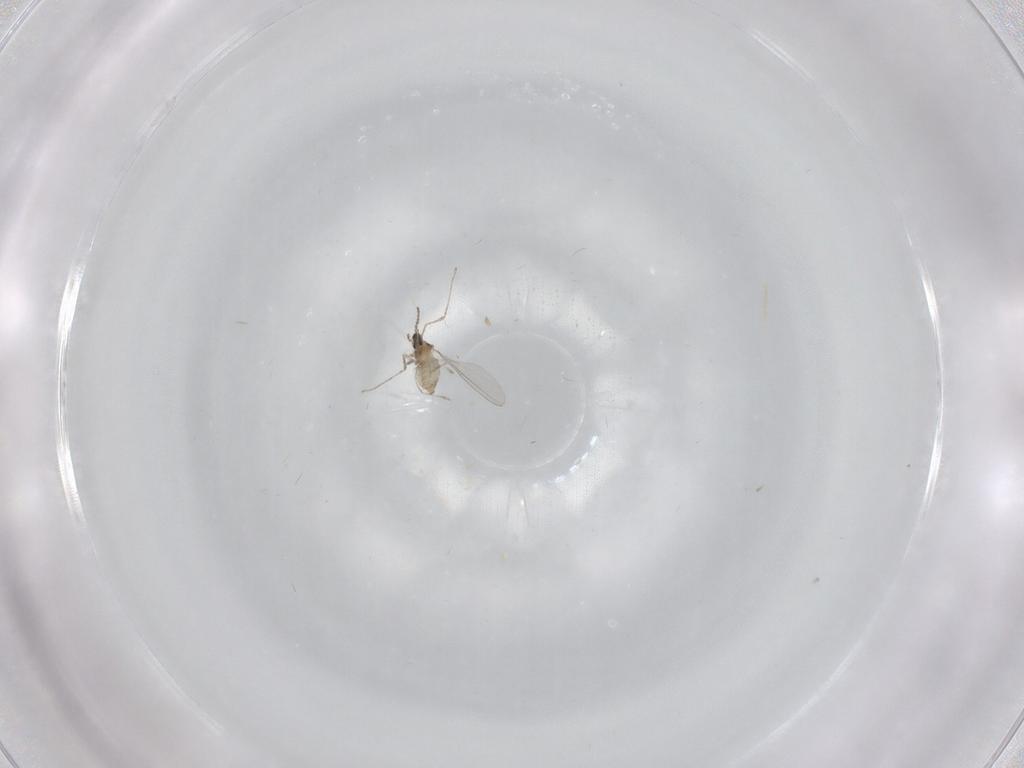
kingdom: Animalia
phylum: Arthropoda
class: Insecta
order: Diptera
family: Cecidomyiidae
